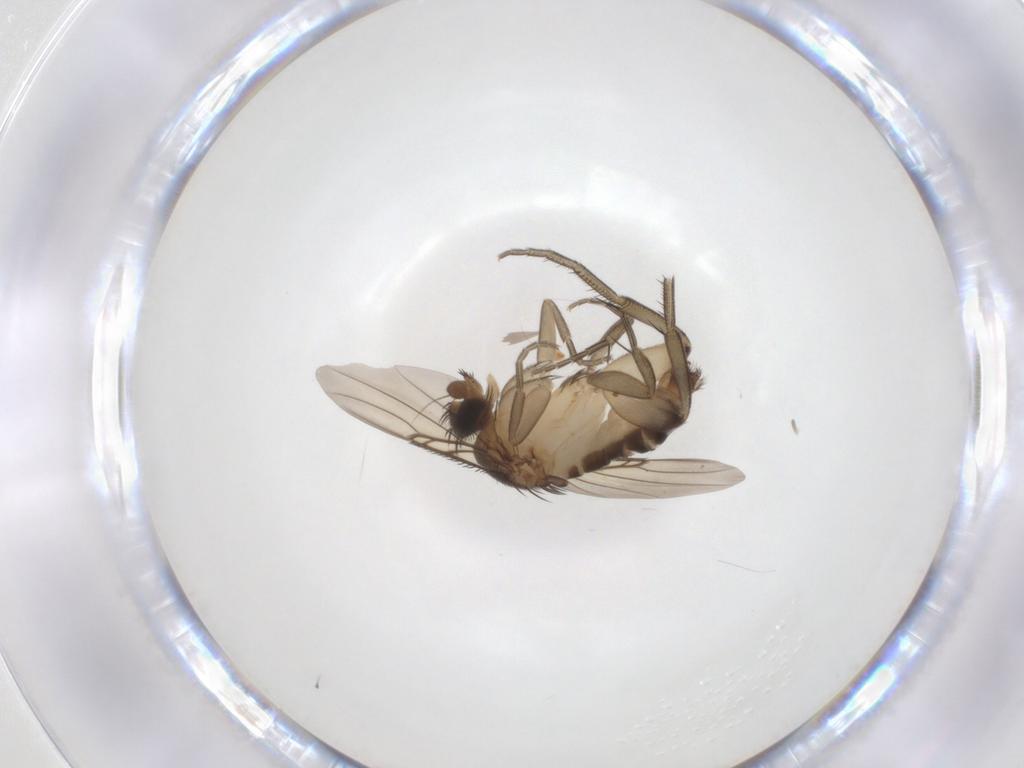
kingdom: Animalia
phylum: Arthropoda
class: Insecta
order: Diptera
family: Phoridae
